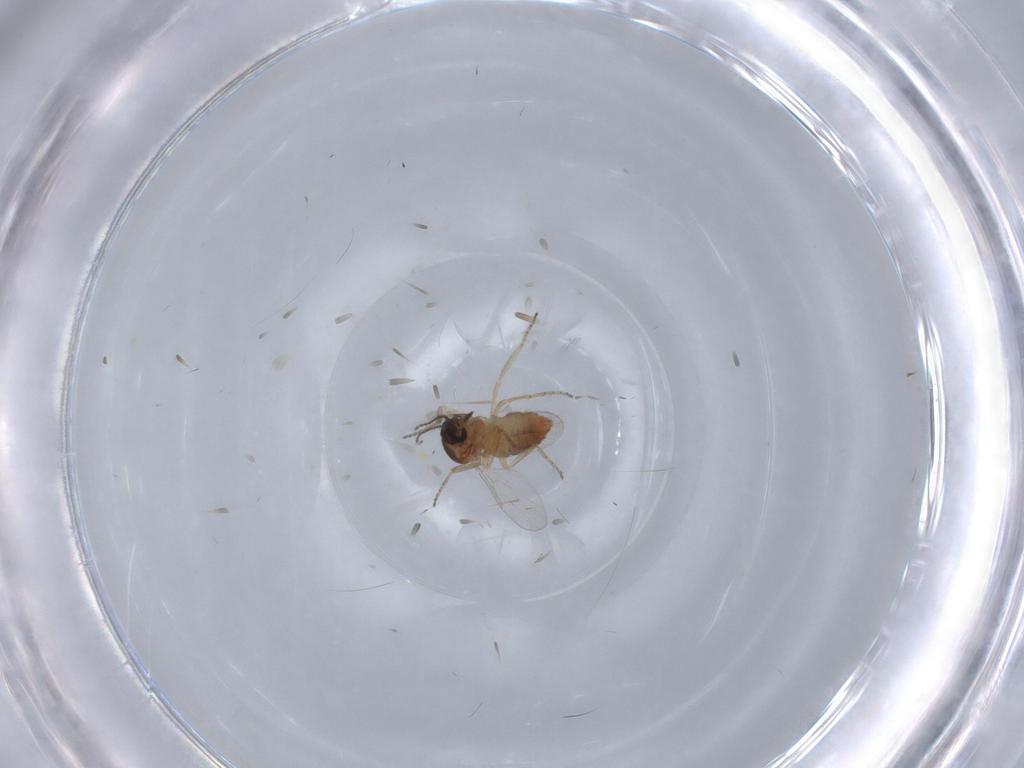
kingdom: Animalia
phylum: Arthropoda
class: Insecta
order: Diptera
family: Ceratopogonidae
